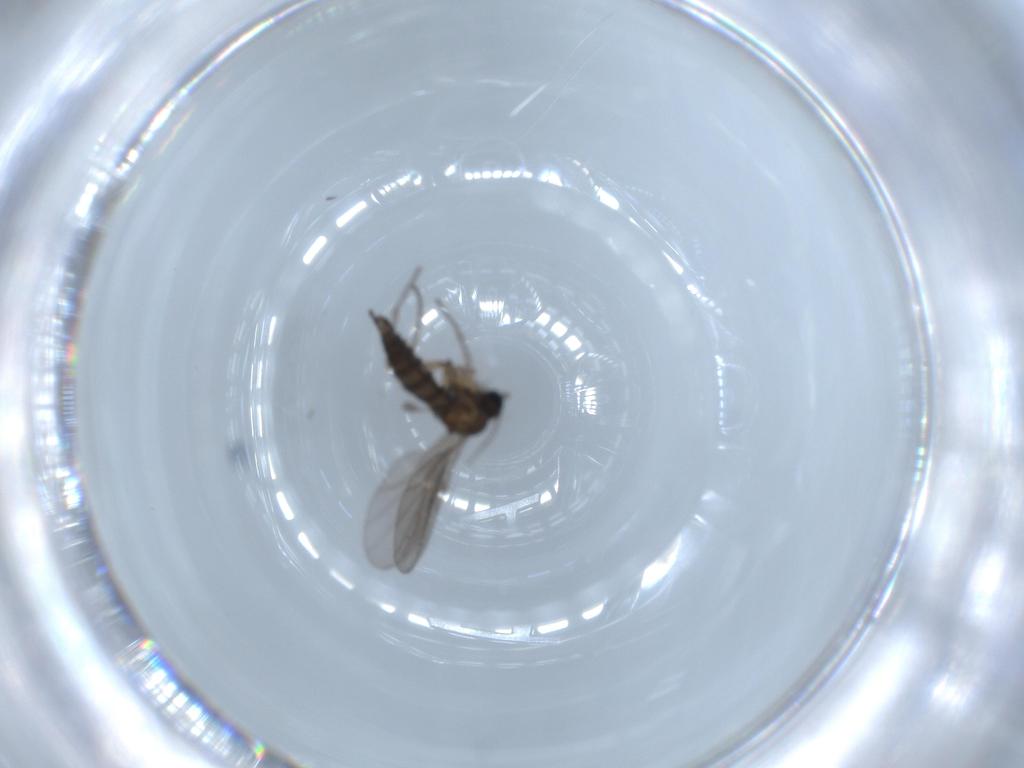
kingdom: Animalia
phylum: Arthropoda
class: Insecta
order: Diptera
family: Sciaridae
